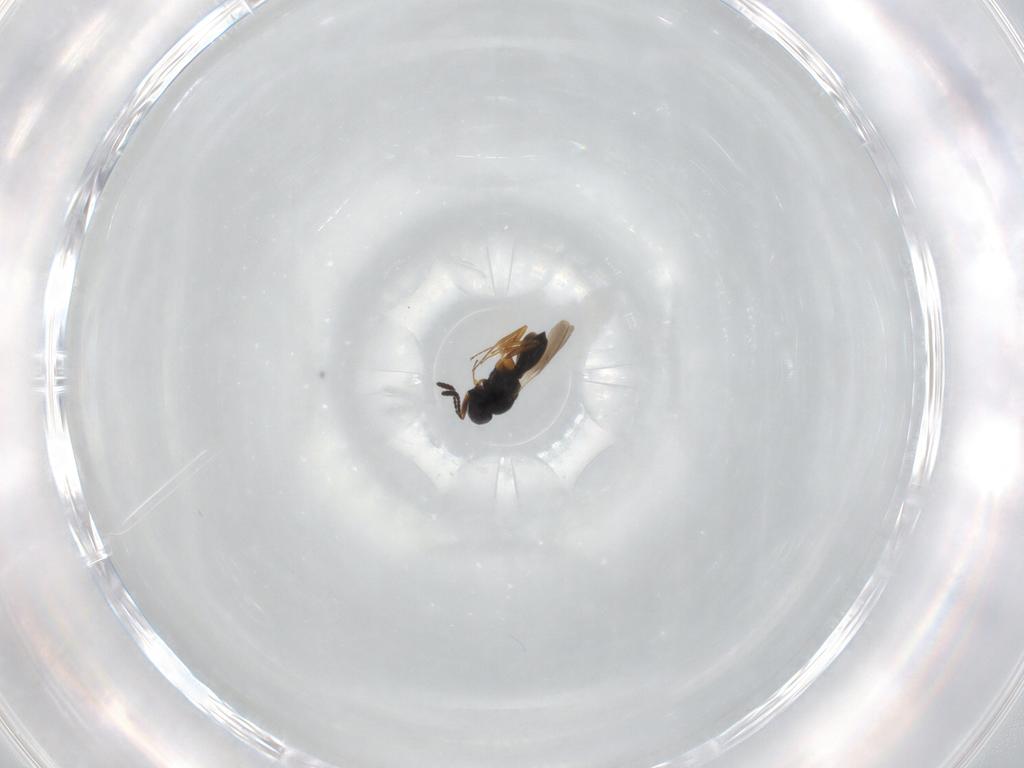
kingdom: Animalia
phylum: Arthropoda
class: Insecta
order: Hymenoptera
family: Scelionidae
